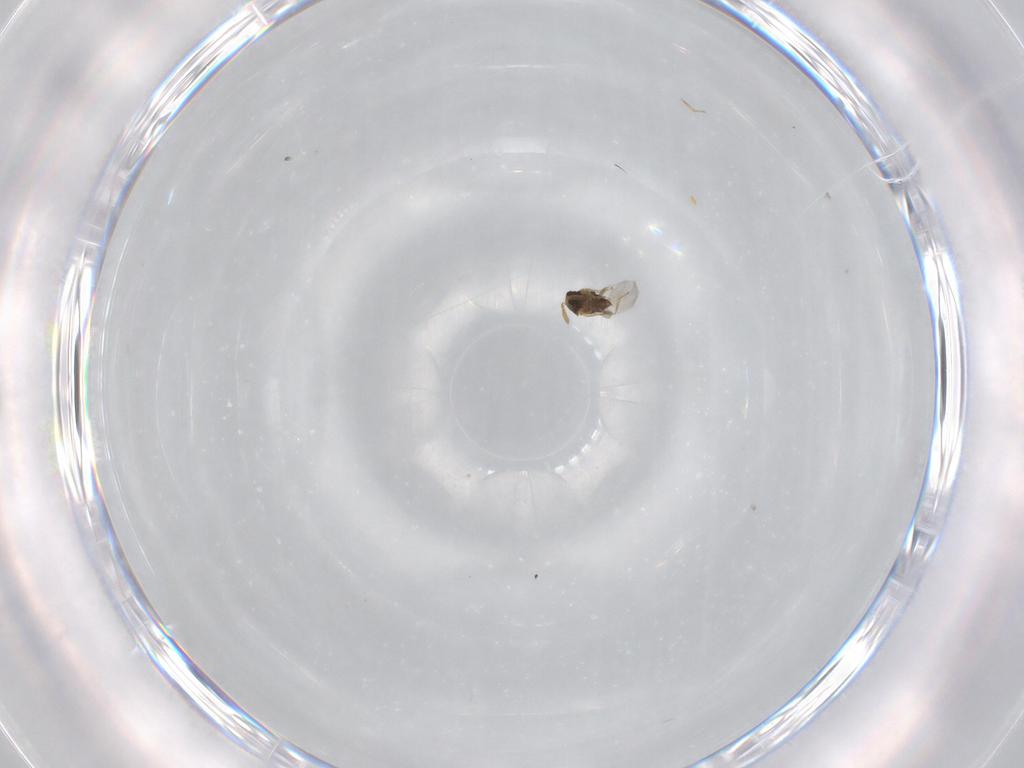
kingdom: Animalia
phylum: Arthropoda
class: Insecta
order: Hymenoptera
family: Encyrtidae
